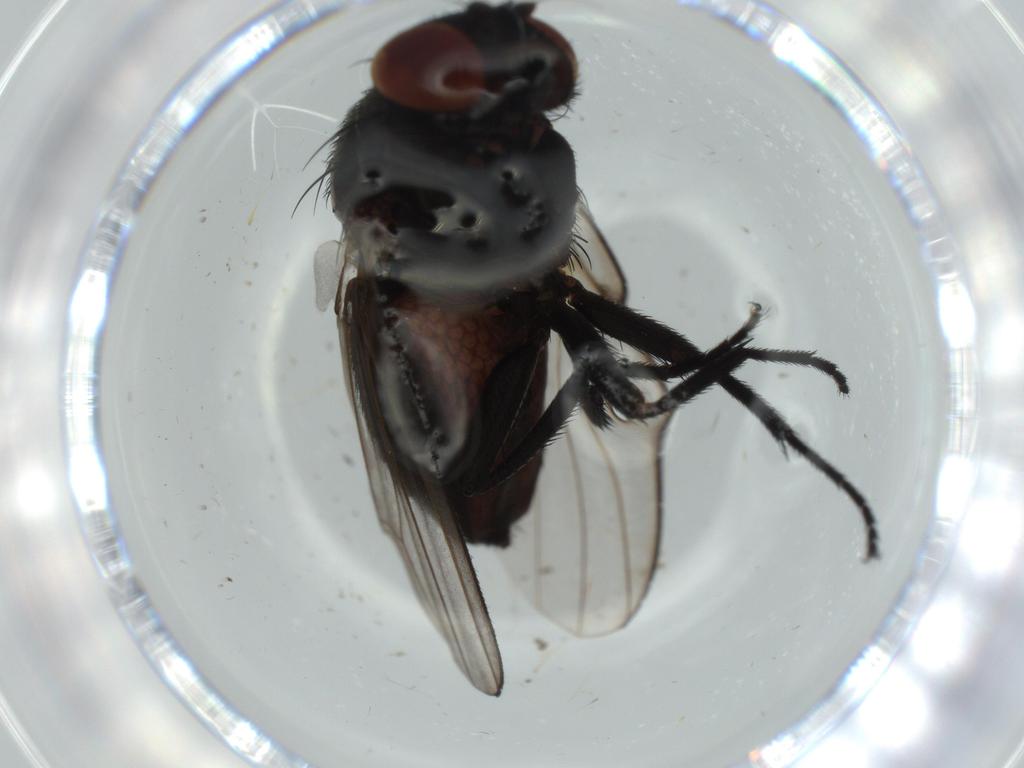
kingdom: Animalia
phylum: Arthropoda
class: Insecta
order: Diptera
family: Milichiidae
